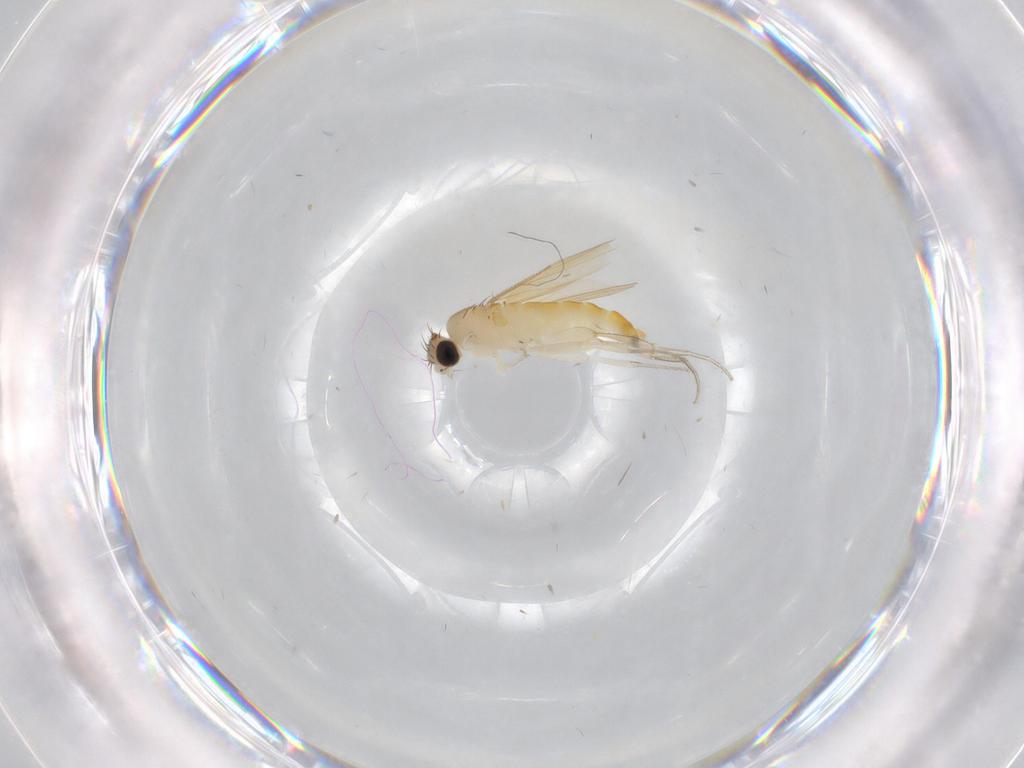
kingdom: Animalia
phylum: Arthropoda
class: Insecta
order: Diptera
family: Phoridae
